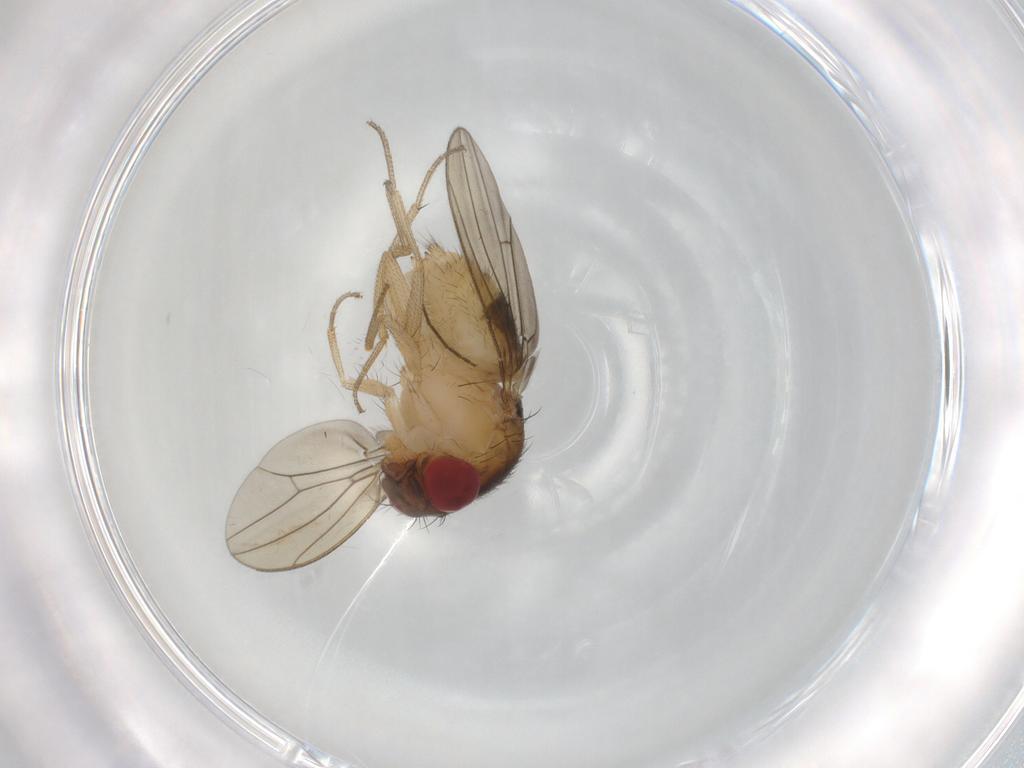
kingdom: Animalia
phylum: Arthropoda
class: Insecta
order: Diptera
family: Drosophilidae
